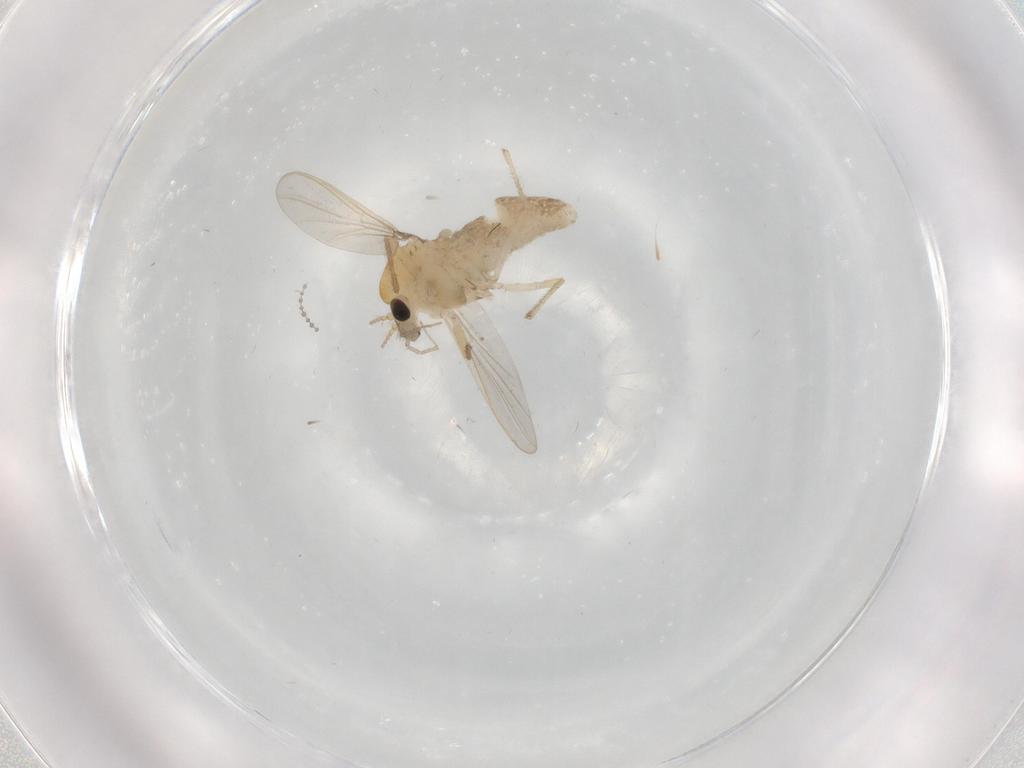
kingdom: Animalia
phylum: Arthropoda
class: Insecta
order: Diptera
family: Chironomidae
